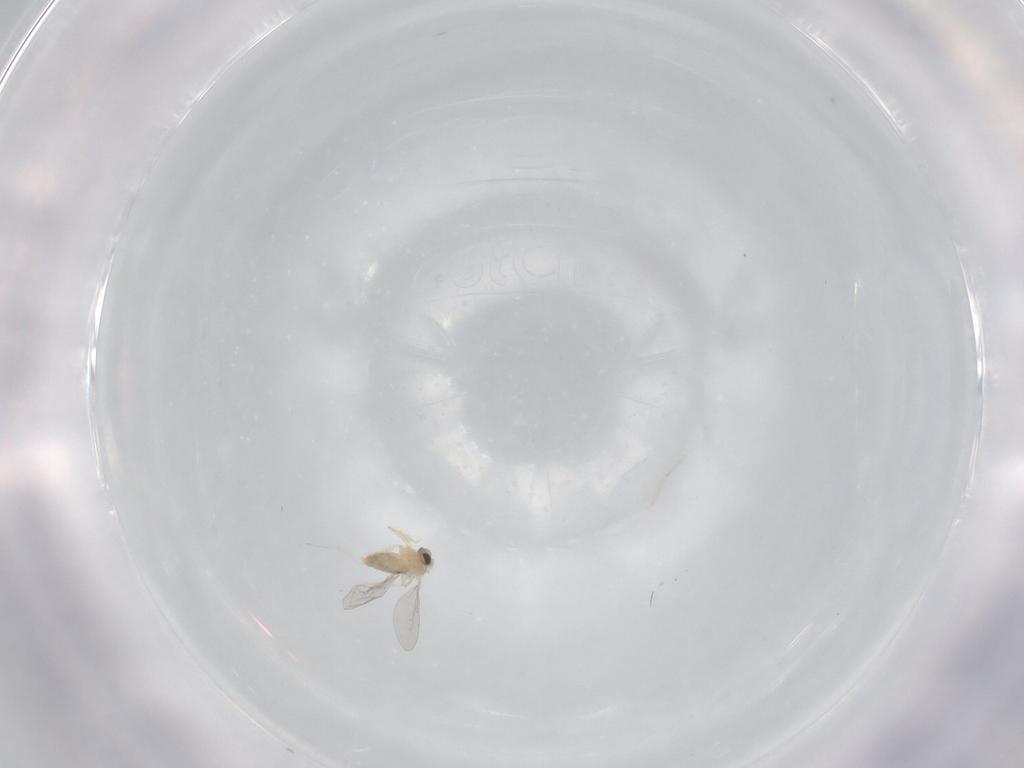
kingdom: Animalia
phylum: Arthropoda
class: Insecta
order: Diptera
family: Cecidomyiidae
